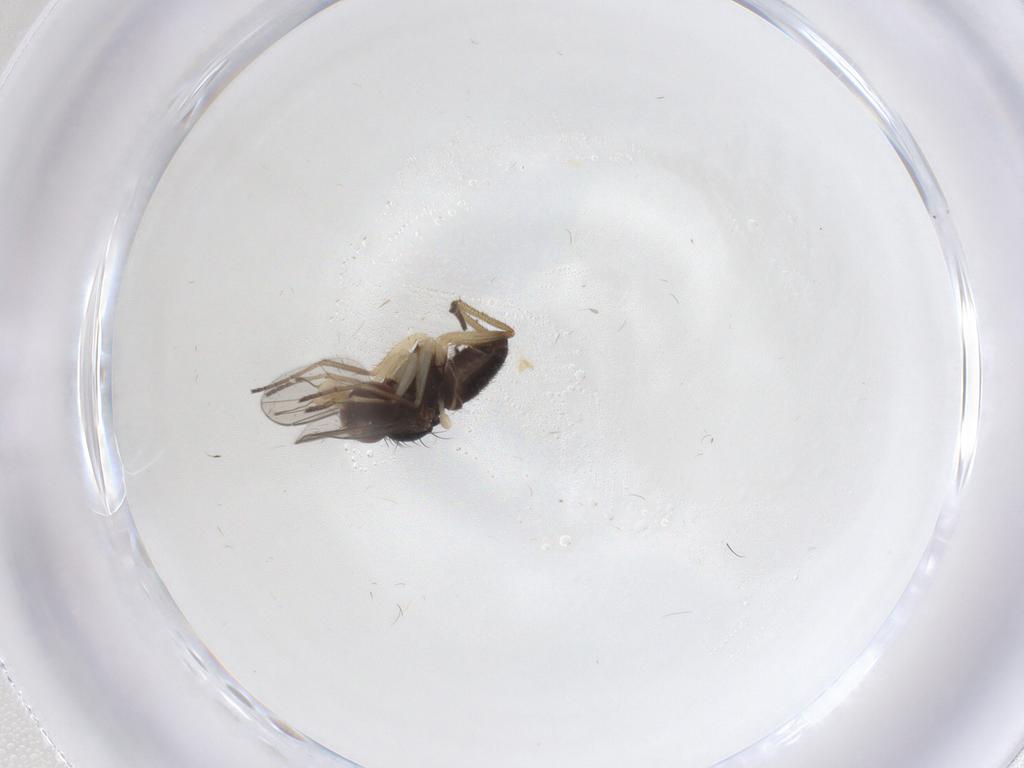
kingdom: Animalia
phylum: Arthropoda
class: Insecta
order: Diptera
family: Dolichopodidae
